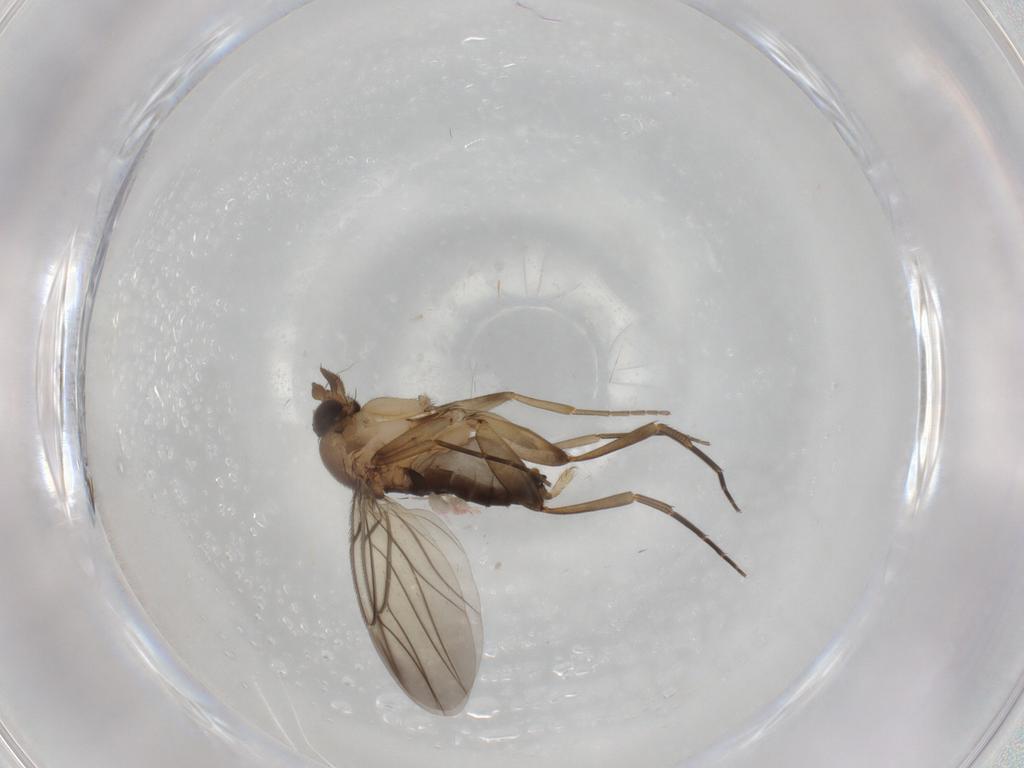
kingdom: Animalia
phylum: Arthropoda
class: Insecta
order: Diptera
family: Phoridae
